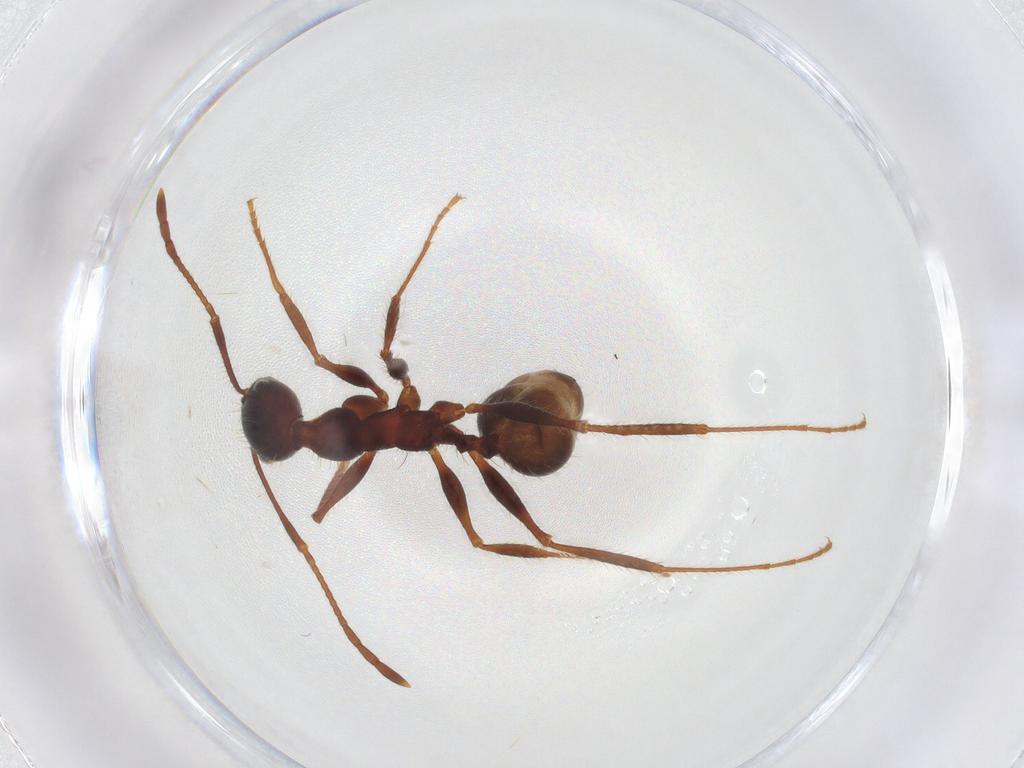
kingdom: Animalia
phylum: Arthropoda
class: Insecta
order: Hymenoptera
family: Formicidae
